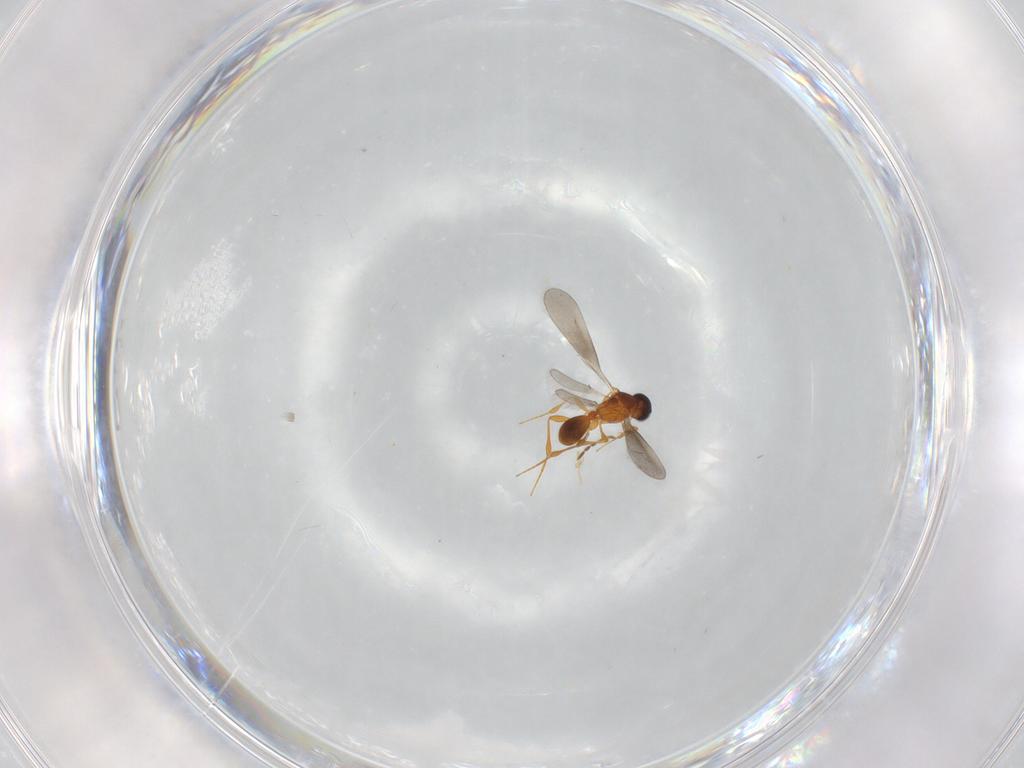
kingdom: Animalia
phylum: Arthropoda
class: Insecta
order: Hymenoptera
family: Platygastridae
